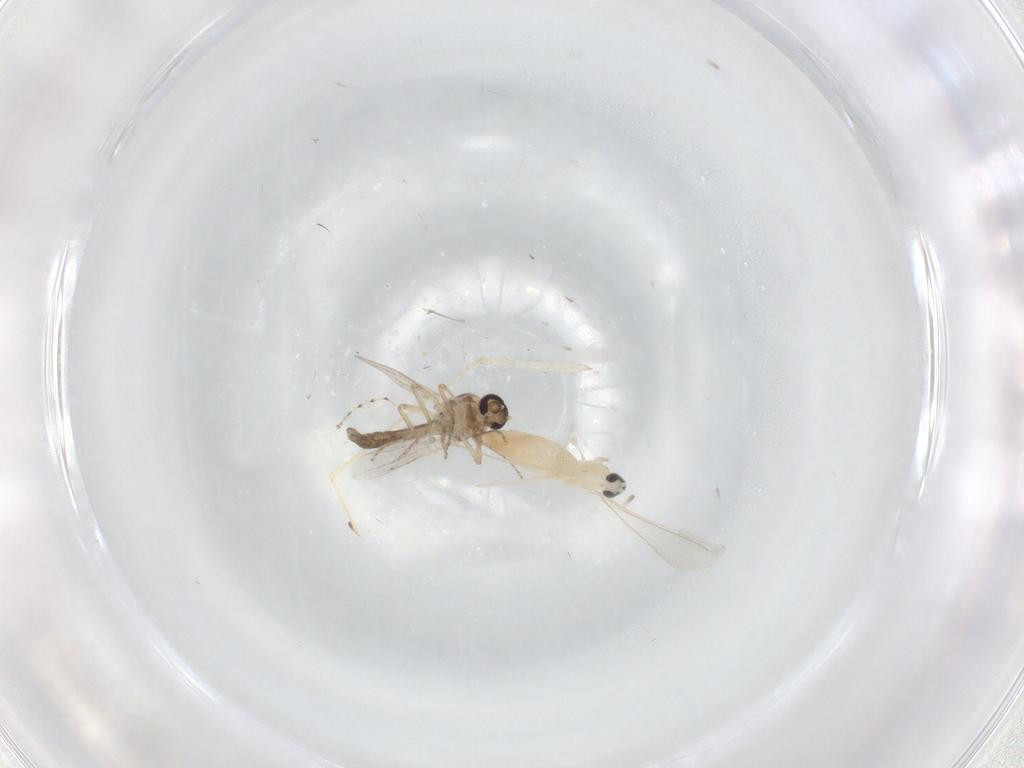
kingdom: Animalia
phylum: Arthropoda
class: Insecta
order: Diptera
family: Ceratopogonidae
